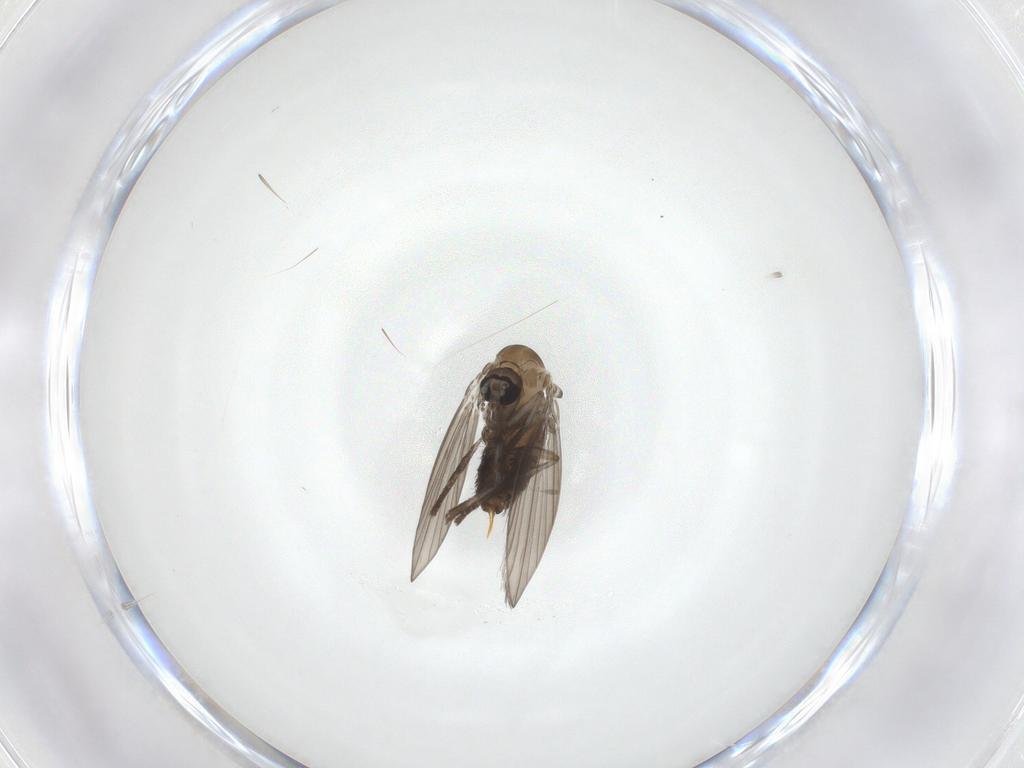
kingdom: Animalia
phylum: Arthropoda
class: Insecta
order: Diptera
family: Psychodidae
